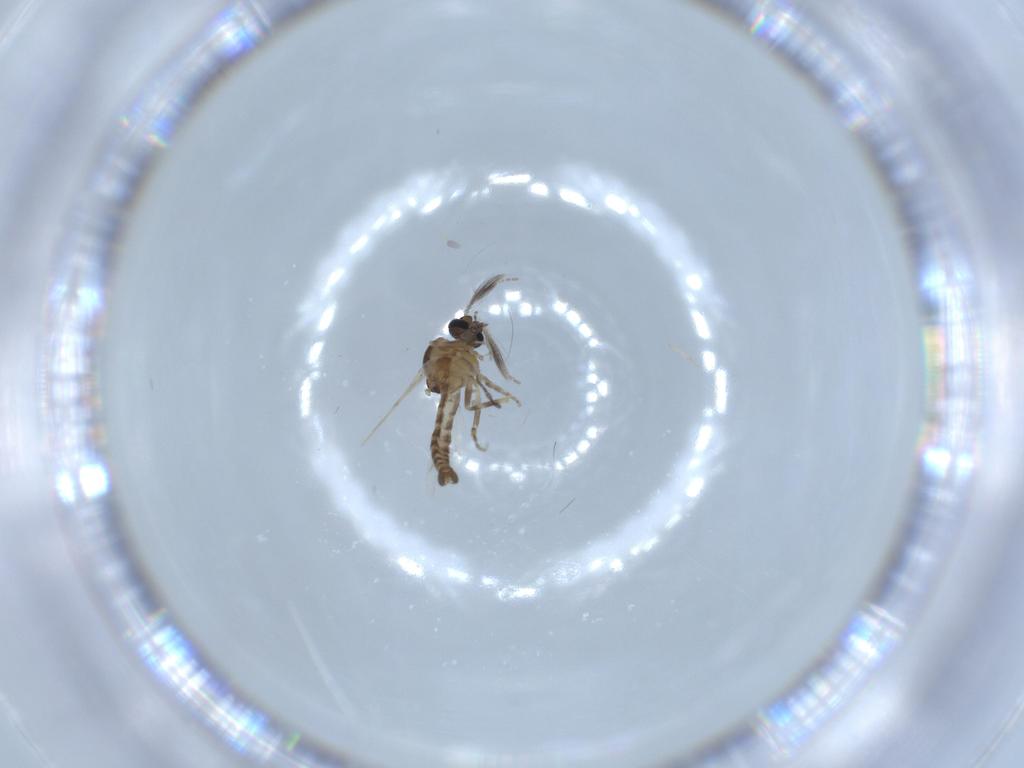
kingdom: Animalia
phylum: Arthropoda
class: Insecta
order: Diptera
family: Ceratopogonidae
